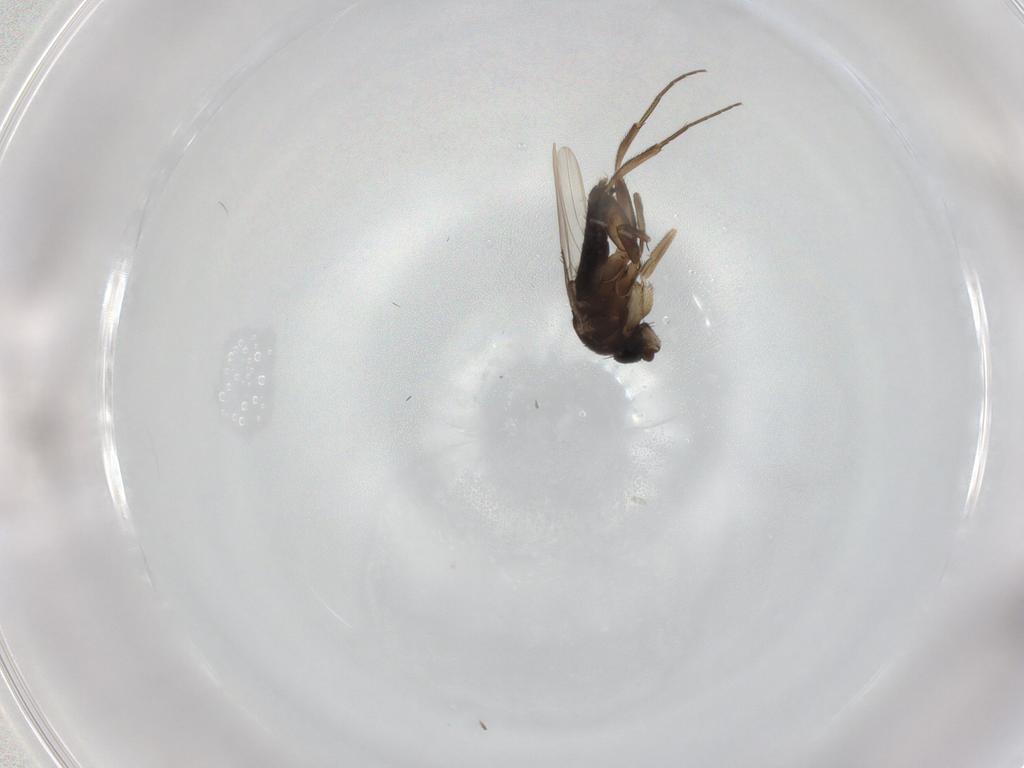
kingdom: Animalia
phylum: Arthropoda
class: Insecta
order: Diptera
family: Phoridae
